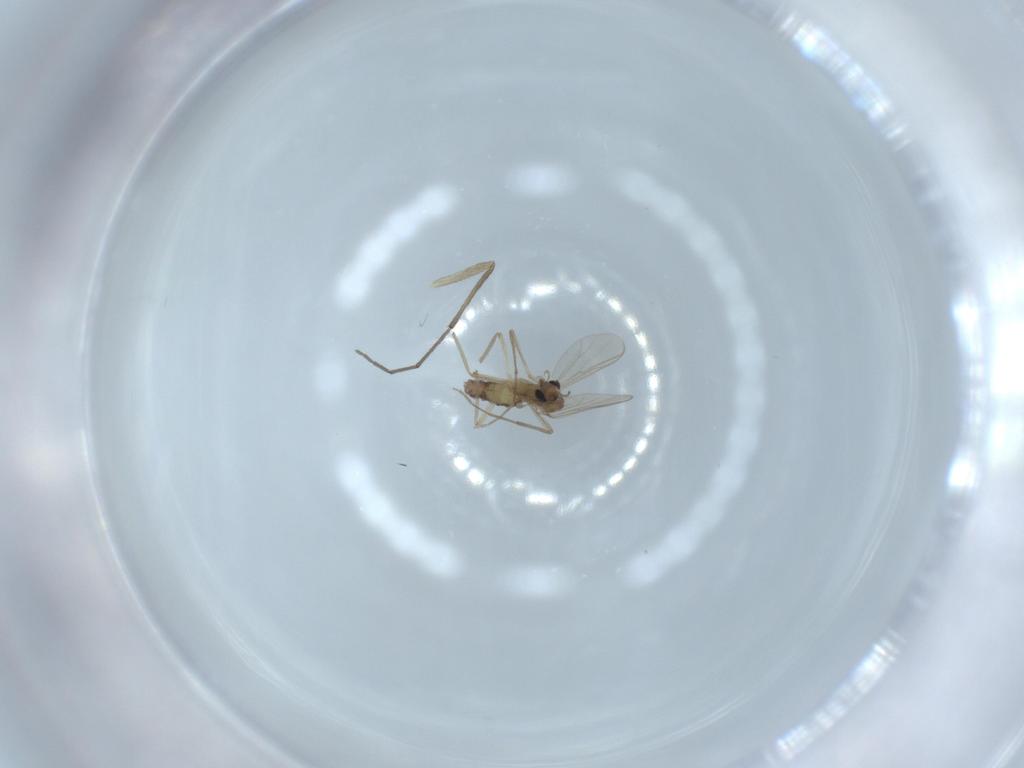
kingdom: Animalia
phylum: Arthropoda
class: Insecta
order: Diptera
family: Chironomidae
